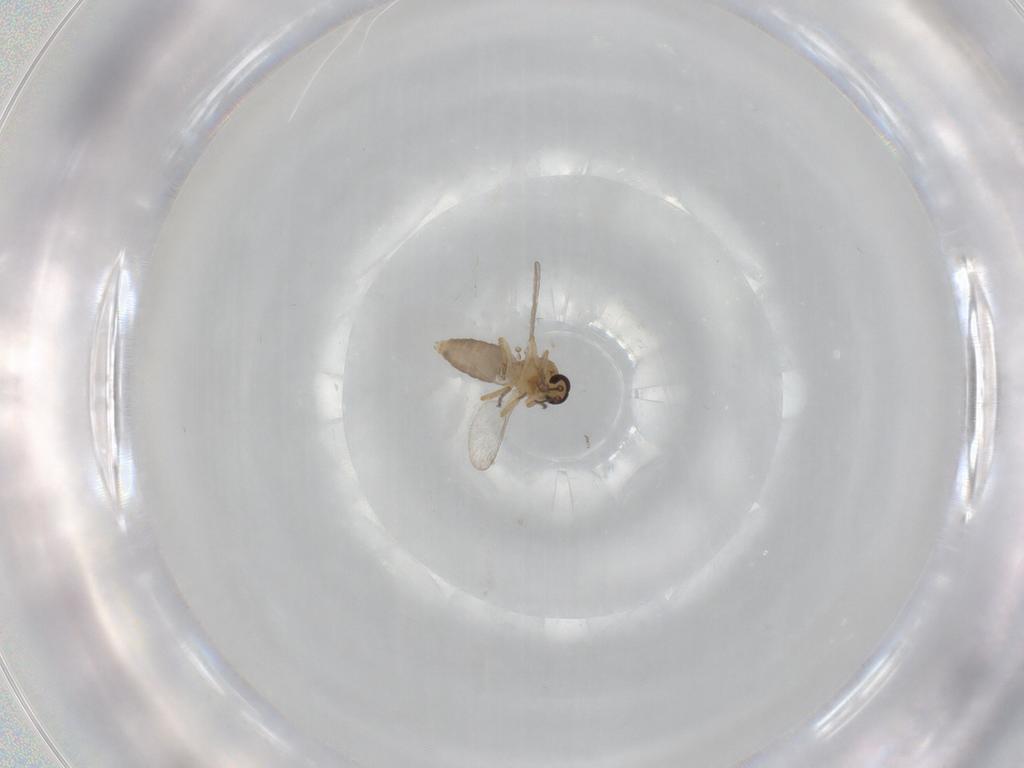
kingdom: Animalia
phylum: Arthropoda
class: Insecta
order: Diptera
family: Ceratopogonidae
